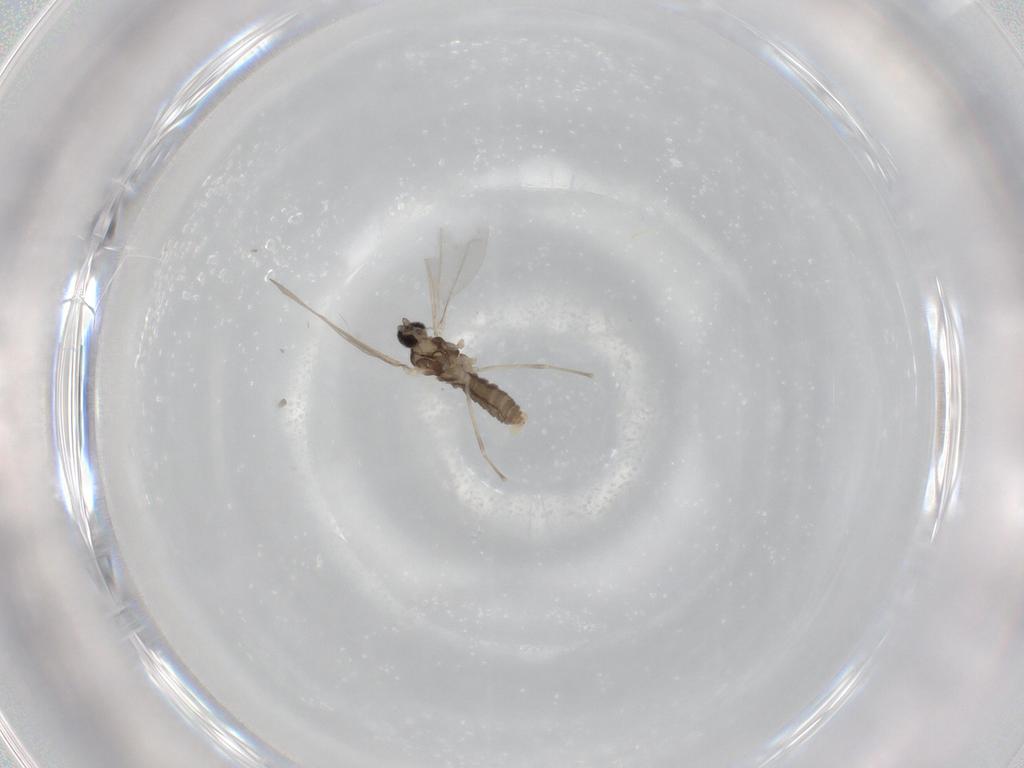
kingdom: Animalia
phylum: Arthropoda
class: Insecta
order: Diptera
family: Cecidomyiidae
